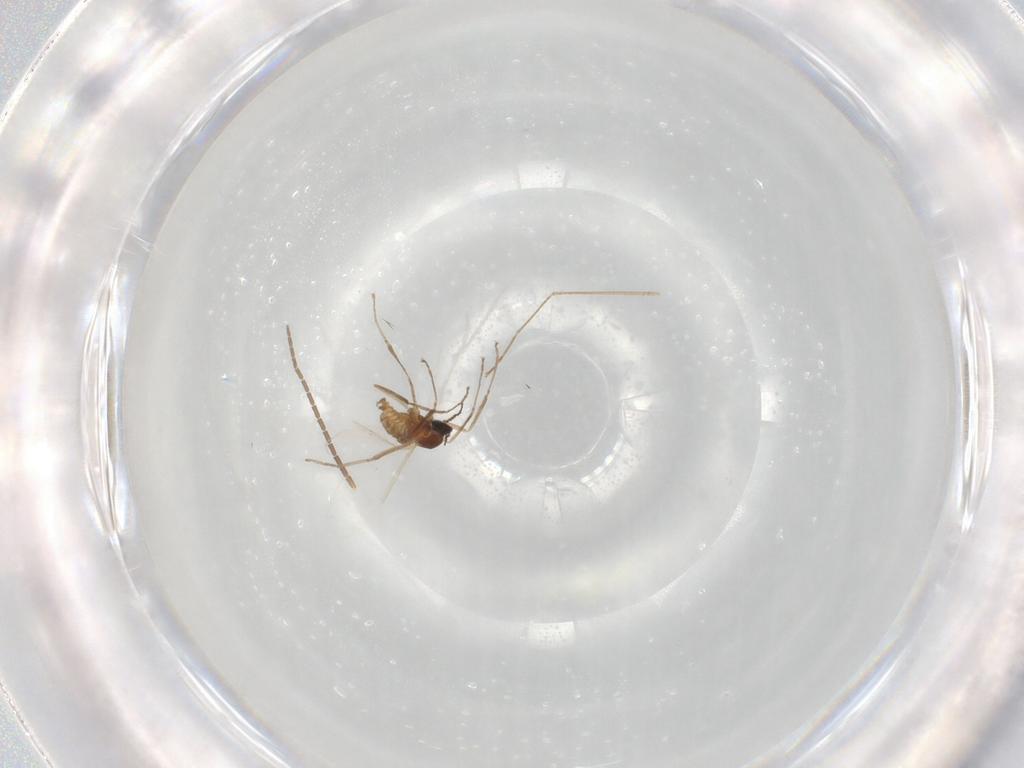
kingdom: Animalia
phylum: Arthropoda
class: Insecta
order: Diptera
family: Cecidomyiidae
